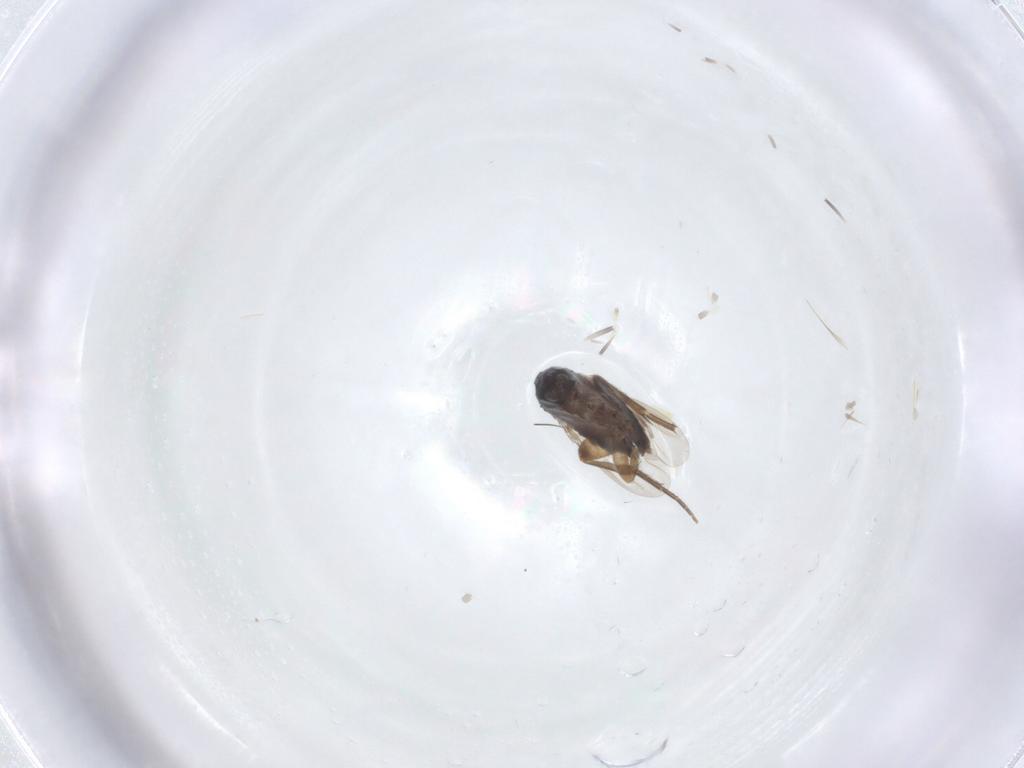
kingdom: Animalia
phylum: Arthropoda
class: Insecta
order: Diptera
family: Phoridae
